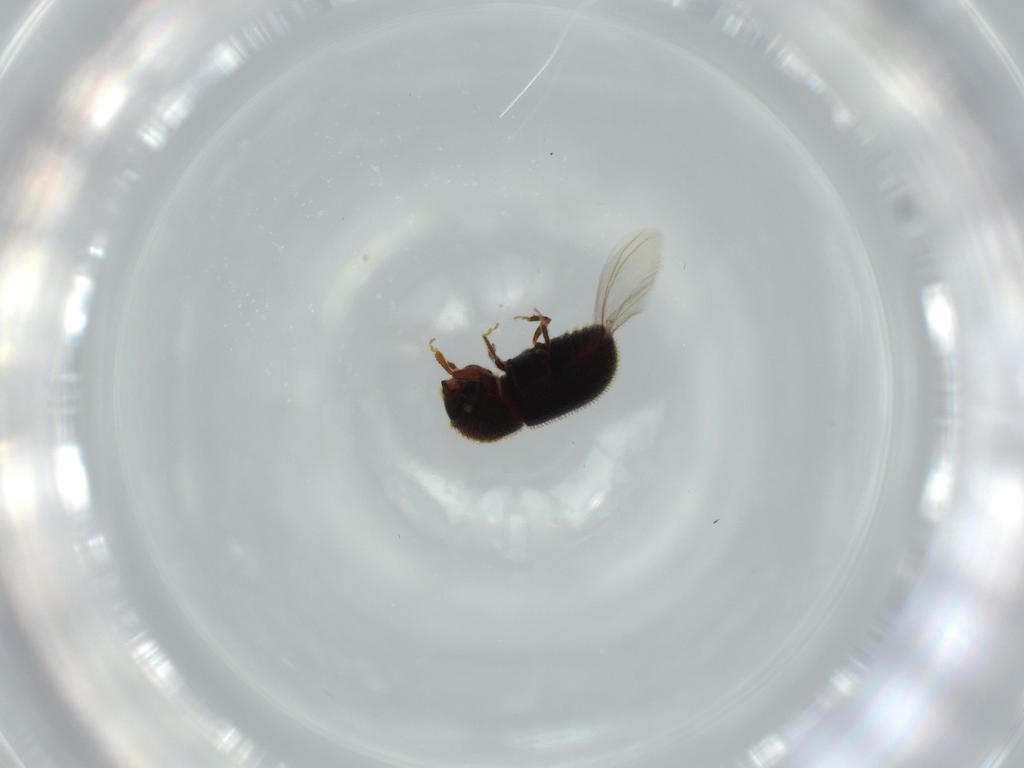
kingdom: Animalia
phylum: Arthropoda
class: Insecta
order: Coleoptera
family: Throscidae
